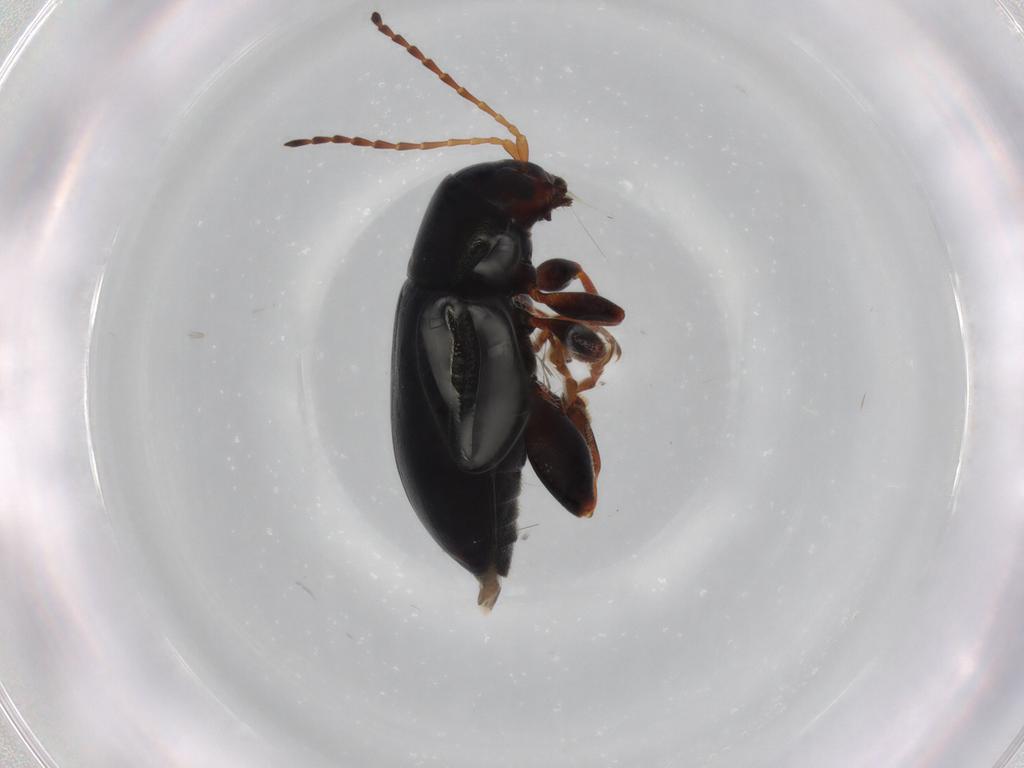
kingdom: Animalia
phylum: Arthropoda
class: Insecta
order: Coleoptera
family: Chrysomelidae
